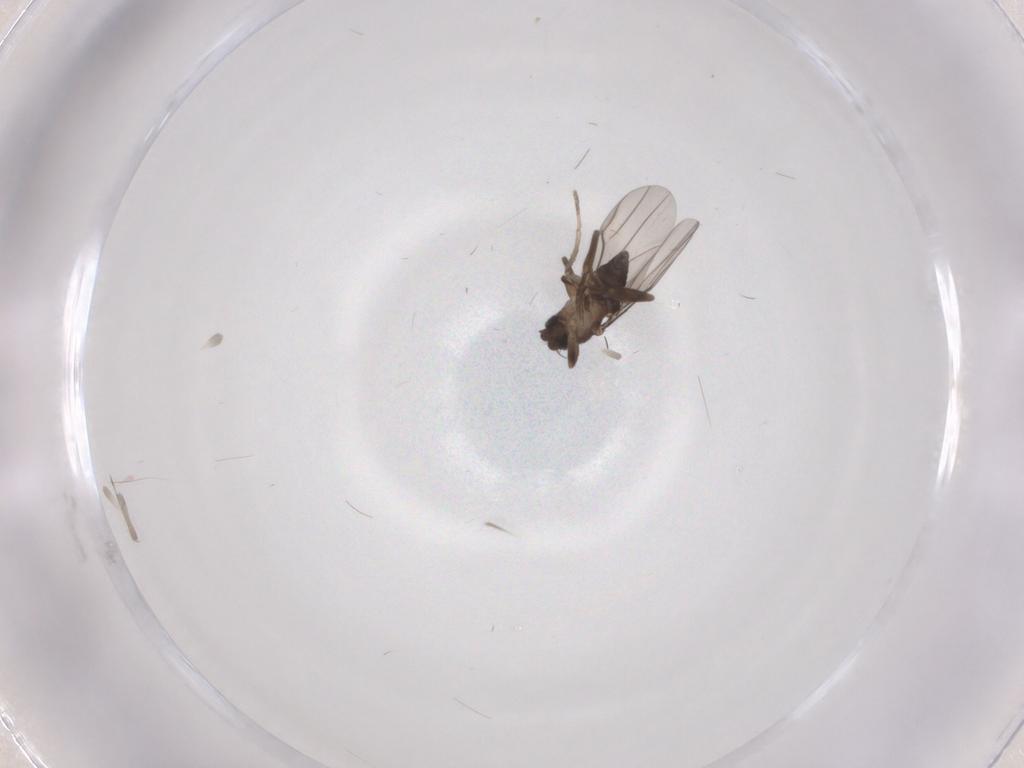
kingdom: Animalia
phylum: Arthropoda
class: Insecta
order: Diptera
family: Phoridae
